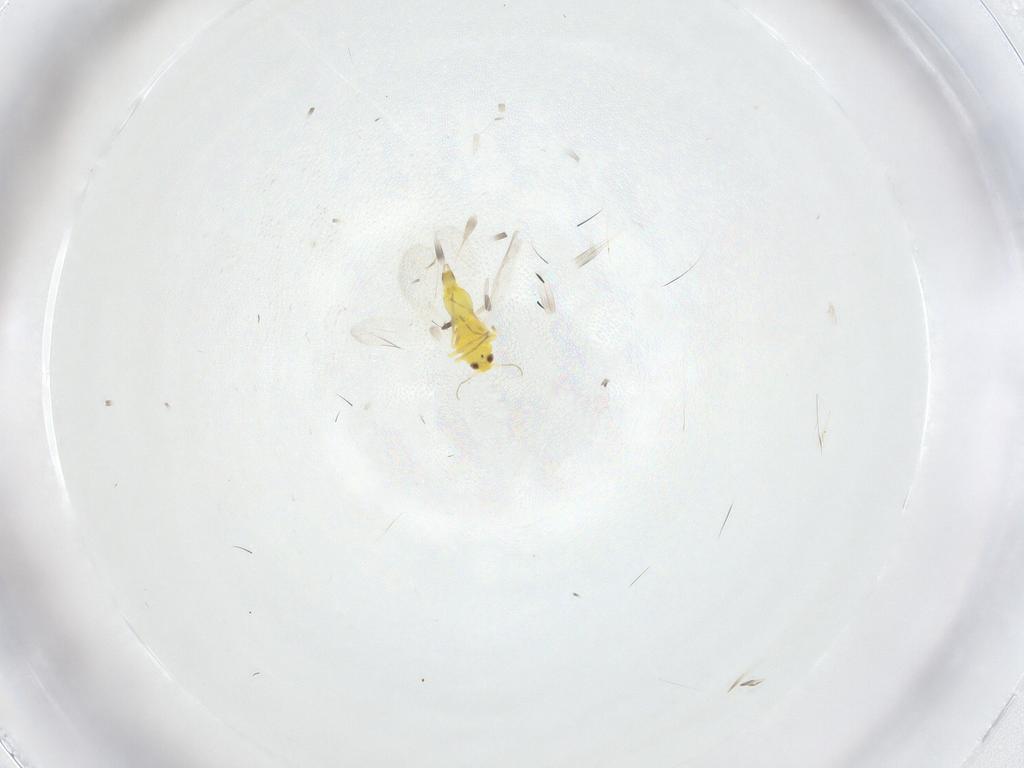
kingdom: Animalia
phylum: Arthropoda
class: Insecta
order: Hemiptera
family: Aleyrodidae
